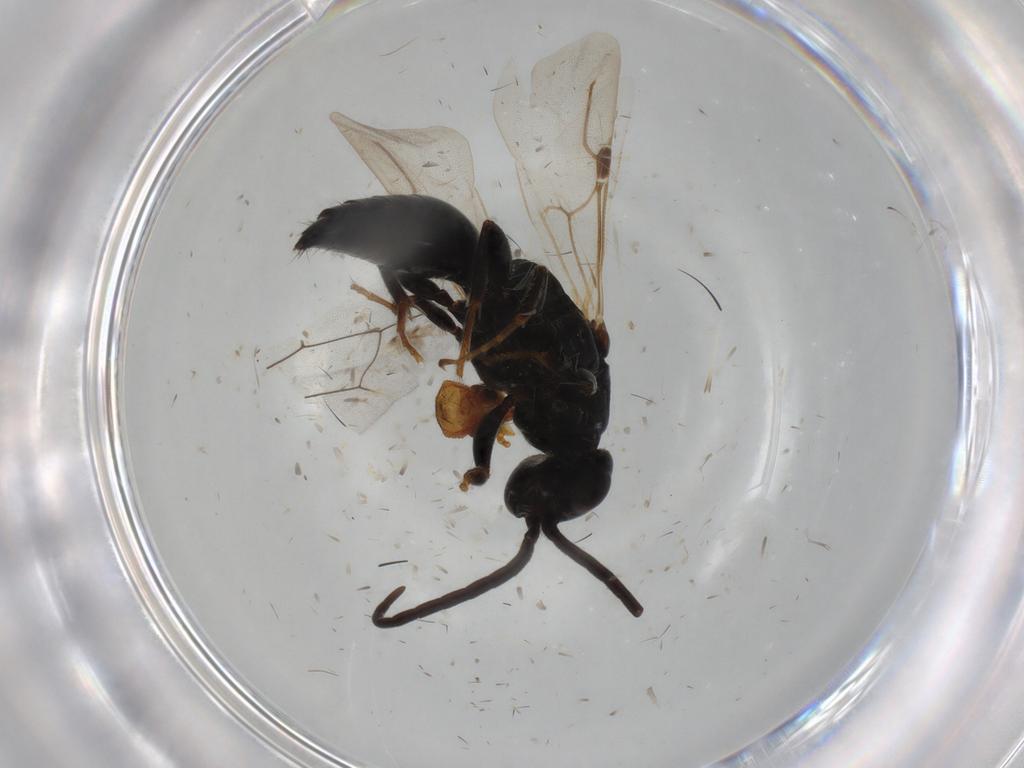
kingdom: Animalia
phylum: Arthropoda
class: Insecta
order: Hymenoptera
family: Bethylidae
